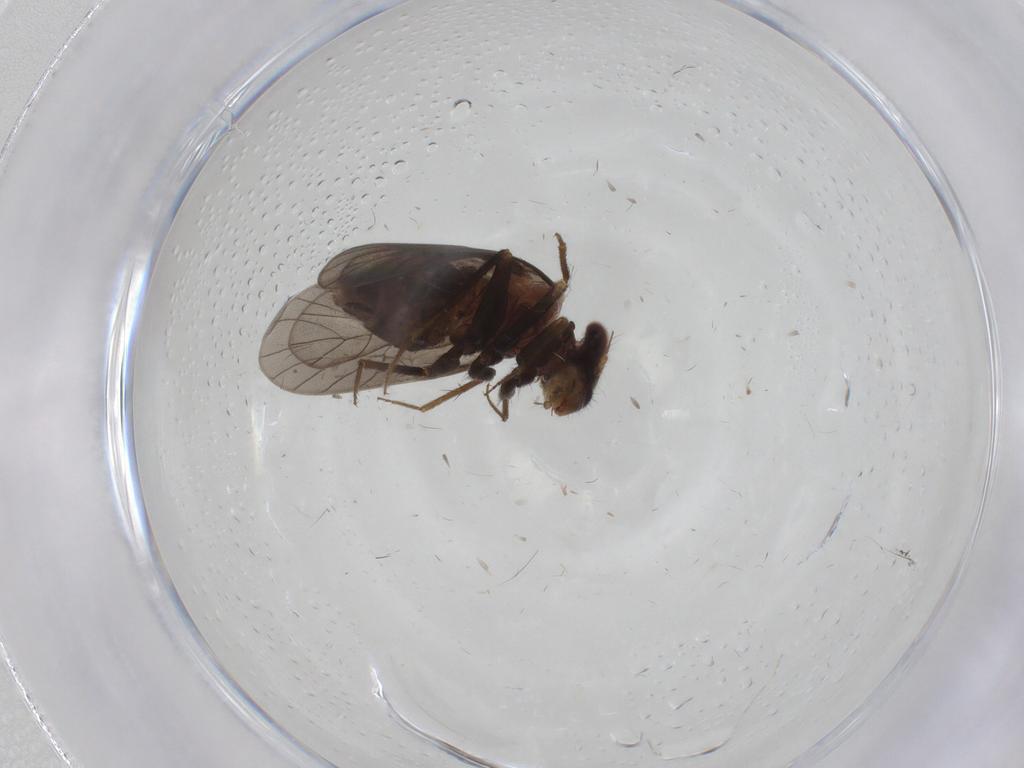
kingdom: Animalia
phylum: Arthropoda
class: Insecta
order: Psocodea
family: Lepidopsocidae
